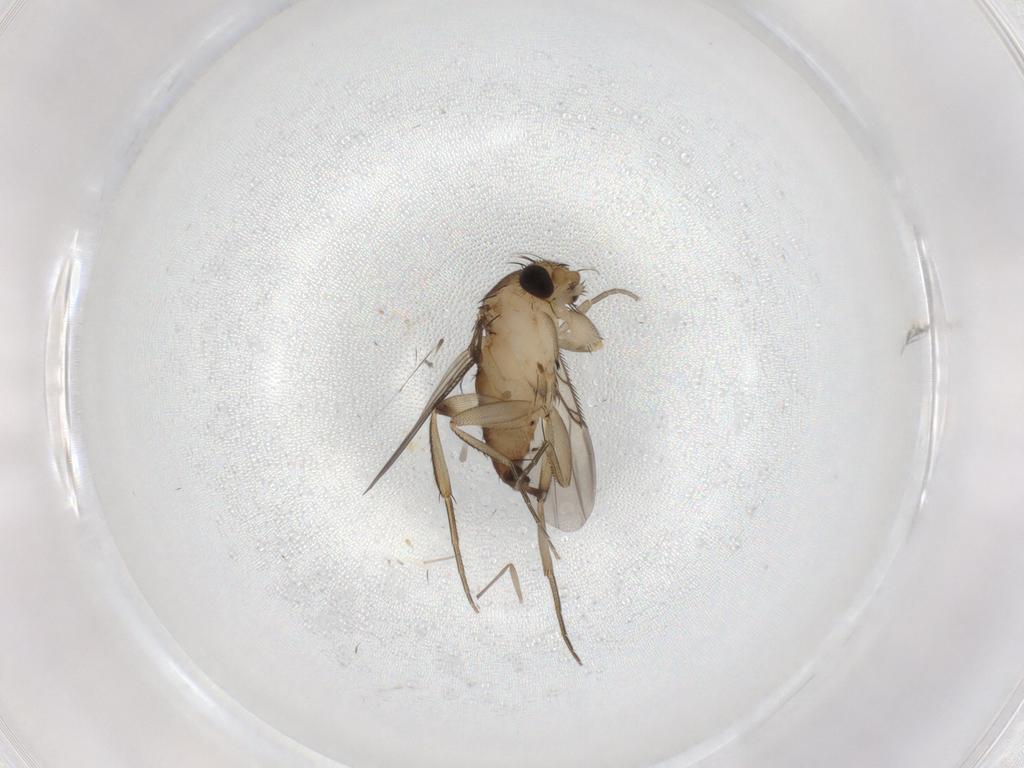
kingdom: Animalia
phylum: Arthropoda
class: Insecta
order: Diptera
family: Phoridae
